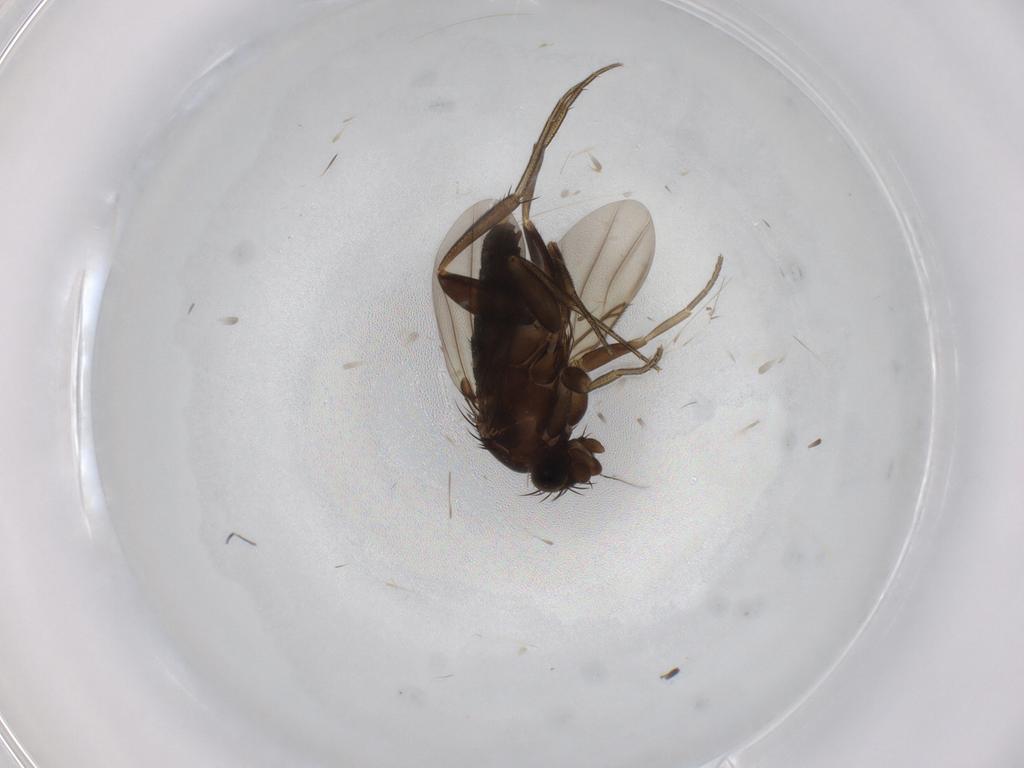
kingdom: Animalia
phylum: Arthropoda
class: Insecta
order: Diptera
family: Phoridae
